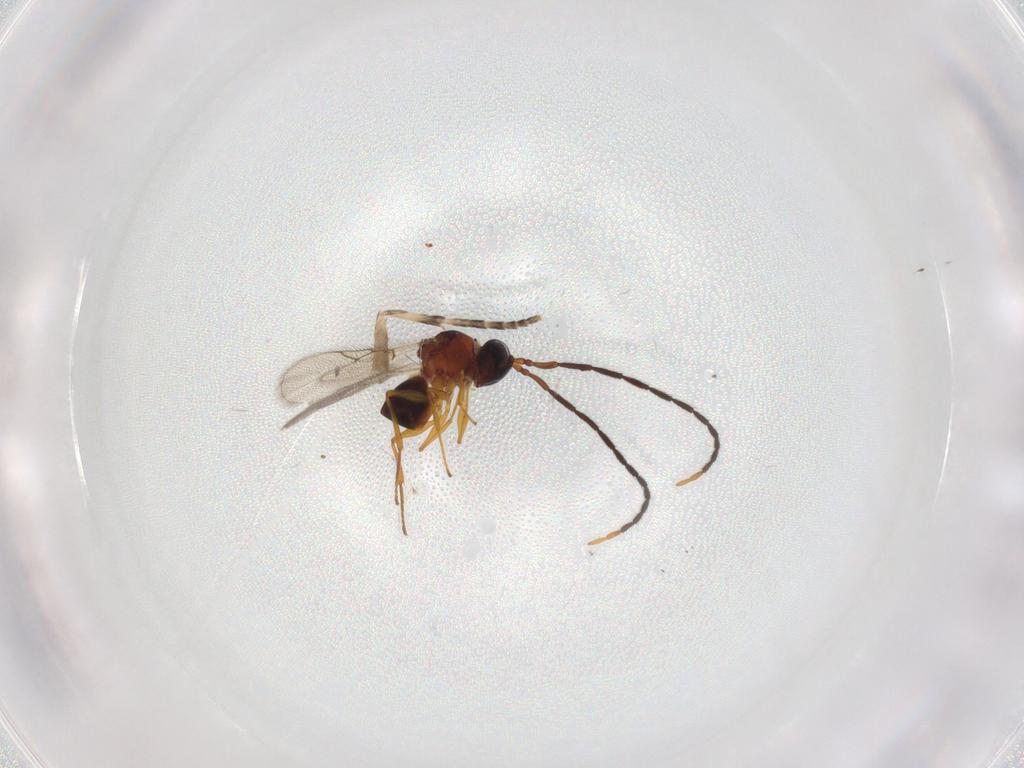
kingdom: Animalia
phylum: Arthropoda
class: Insecta
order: Hymenoptera
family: Figitidae
